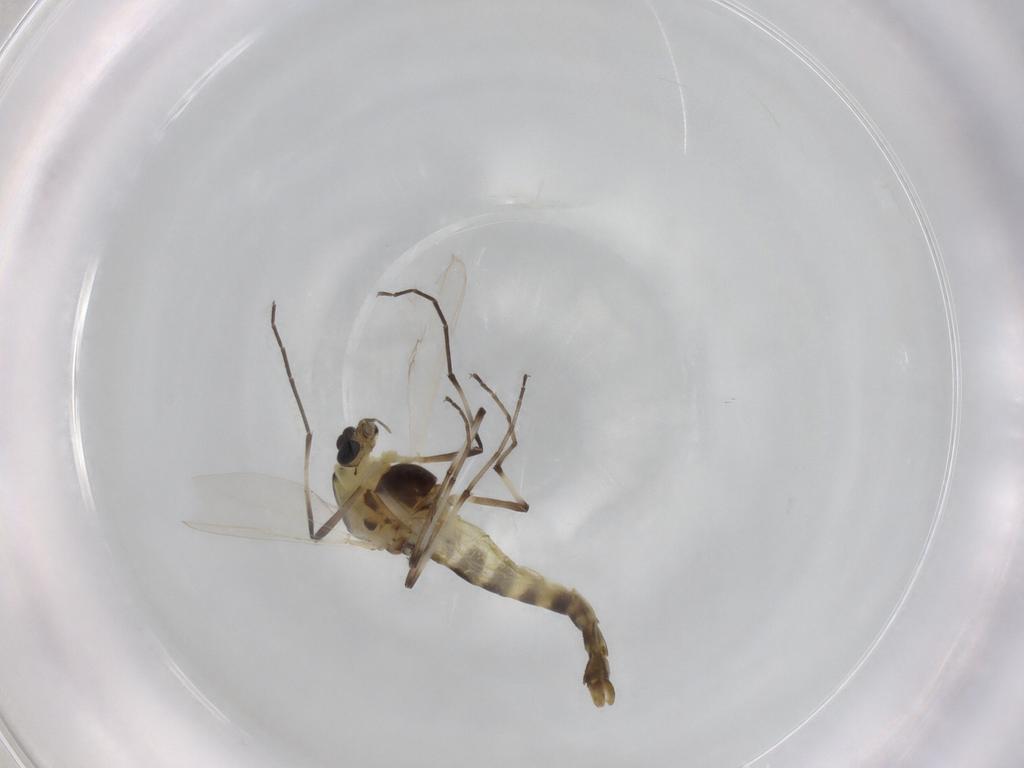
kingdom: Animalia
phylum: Arthropoda
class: Insecta
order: Diptera
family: Chironomidae
